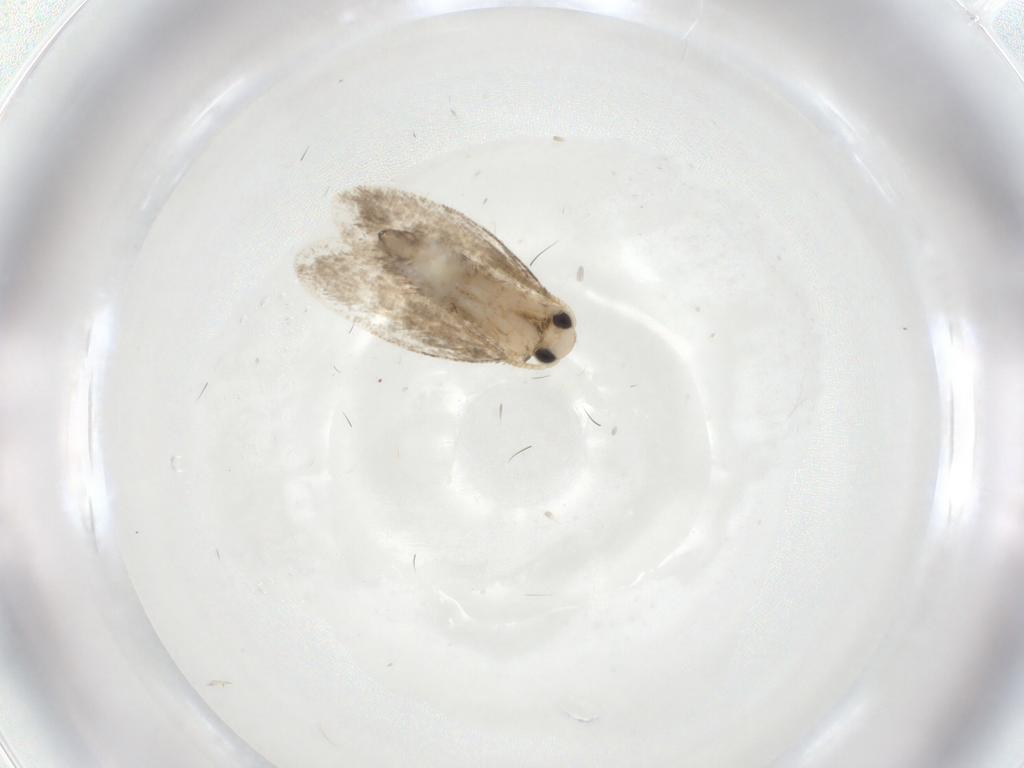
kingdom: Animalia
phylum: Arthropoda
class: Insecta
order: Lepidoptera
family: Psychidae
